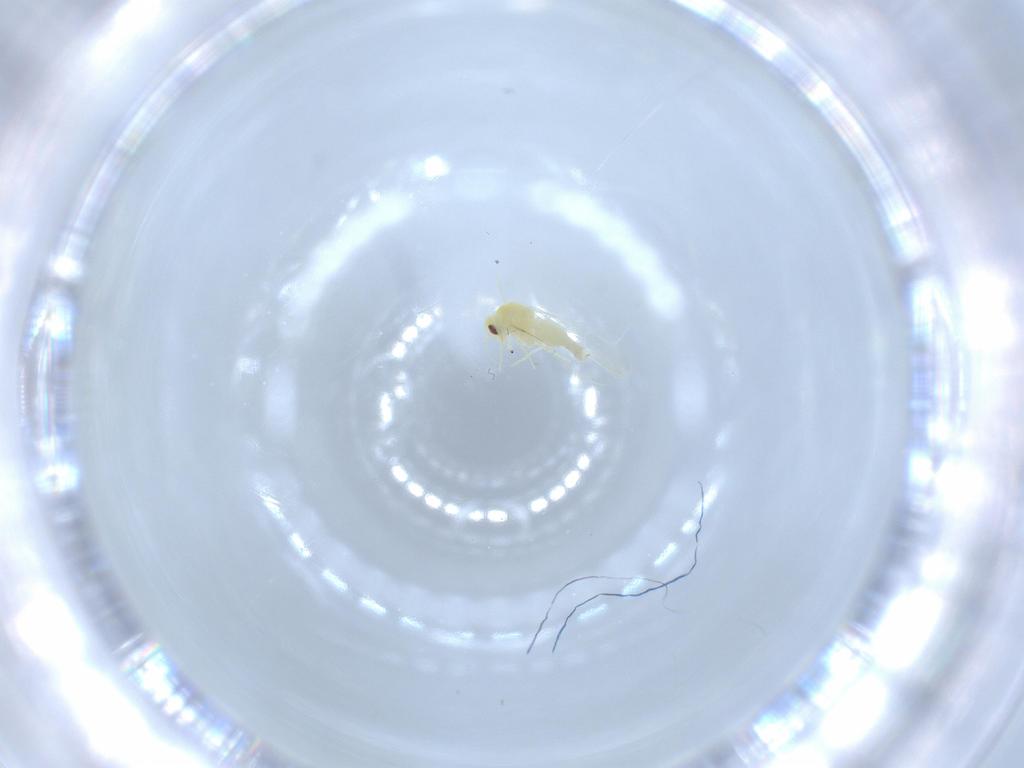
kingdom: Animalia
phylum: Arthropoda
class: Insecta
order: Hemiptera
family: Aleyrodidae
